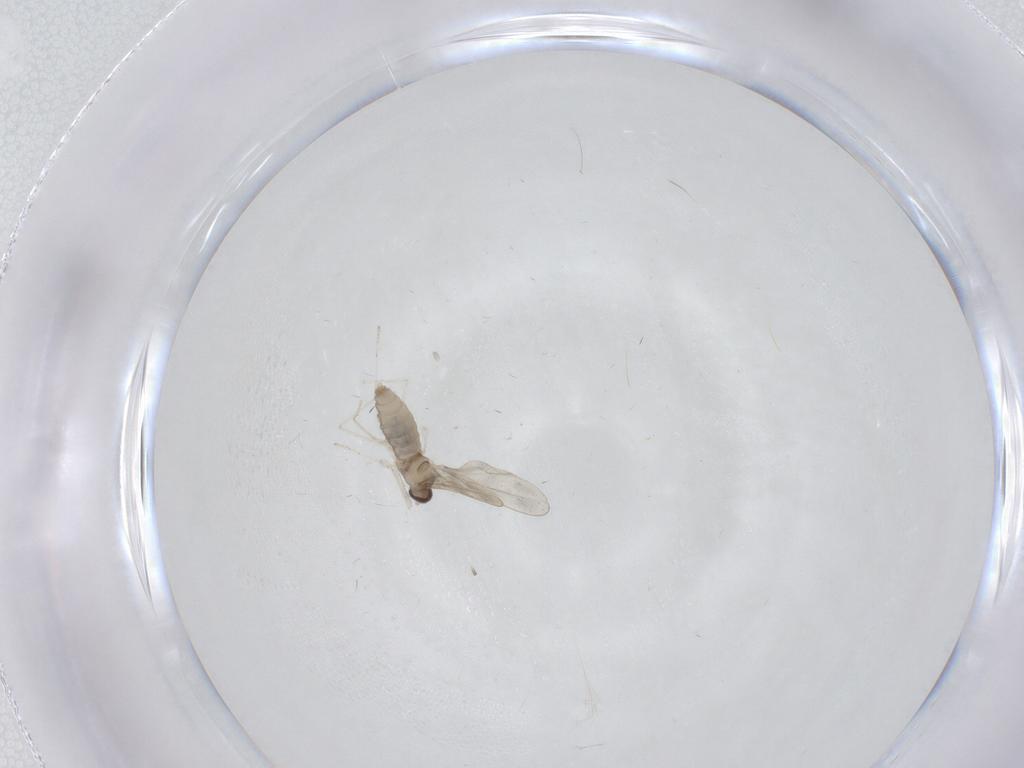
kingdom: Animalia
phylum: Arthropoda
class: Insecta
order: Diptera
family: Cecidomyiidae
